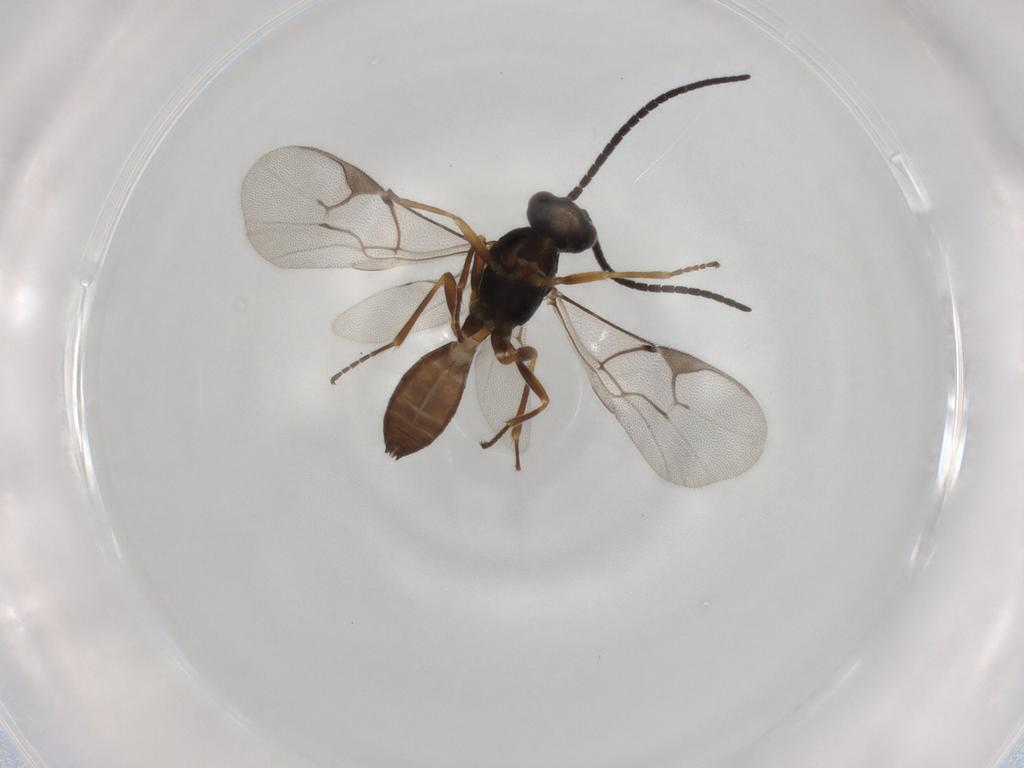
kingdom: Animalia
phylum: Arthropoda
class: Insecta
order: Hymenoptera
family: Braconidae
